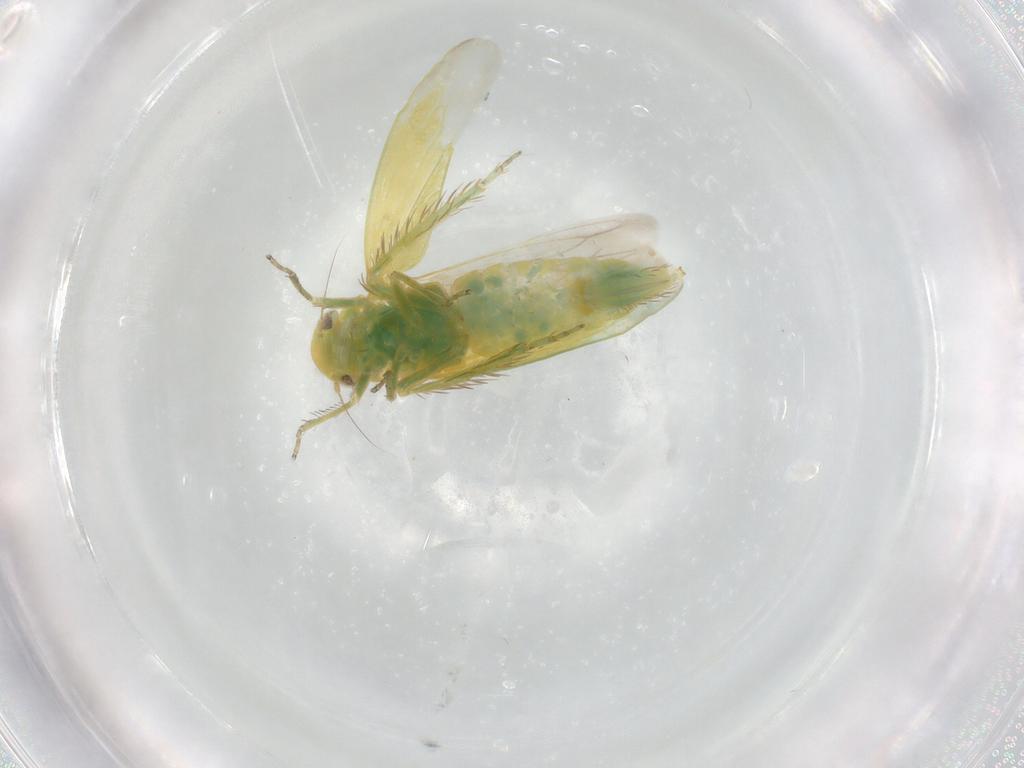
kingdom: Animalia
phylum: Arthropoda
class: Insecta
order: Hemiptera
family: Cicadellidae
